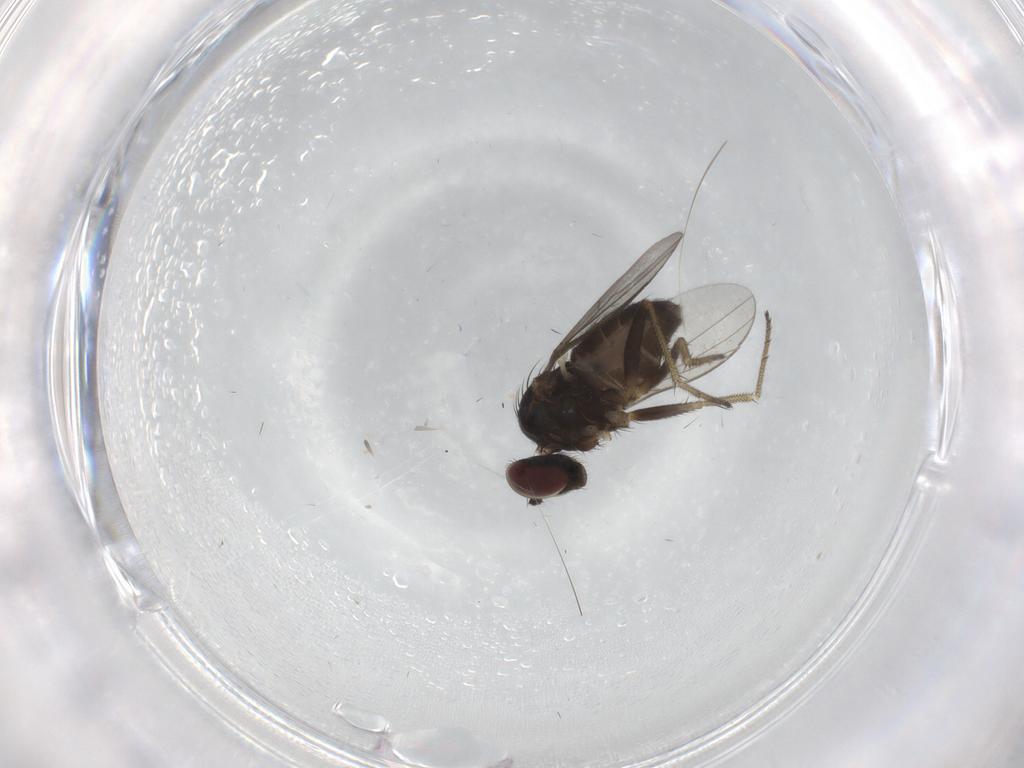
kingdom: Animalia
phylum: Arthropoda
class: Insecta
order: Diptera
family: Dolichopodidae
